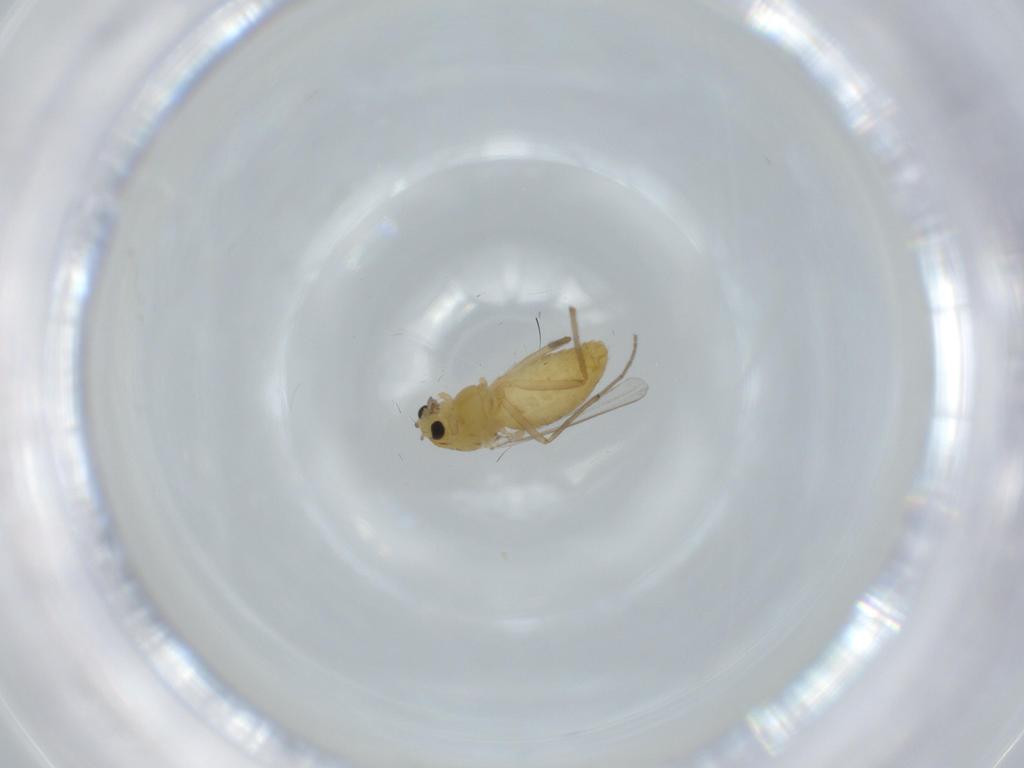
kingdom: Animalia
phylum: Arthropoda
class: Insecta
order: Diptera
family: Chironomidae
